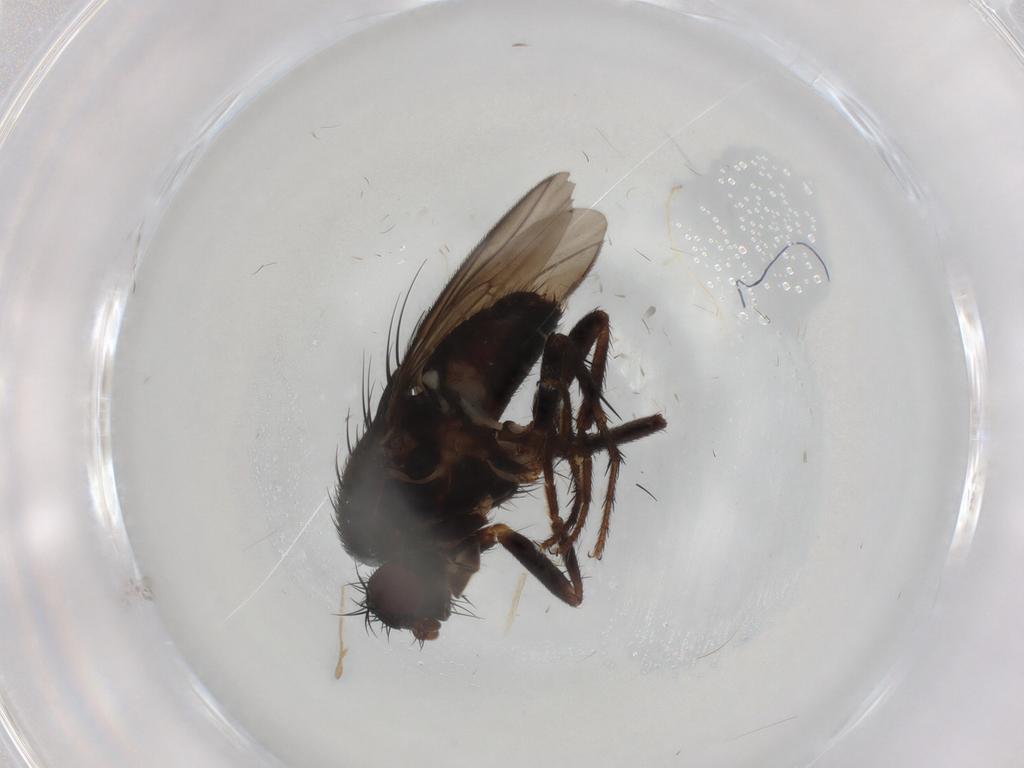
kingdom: Animalia
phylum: Arthropoda
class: Insecta
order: Diptera
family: Sphaeroceridae
